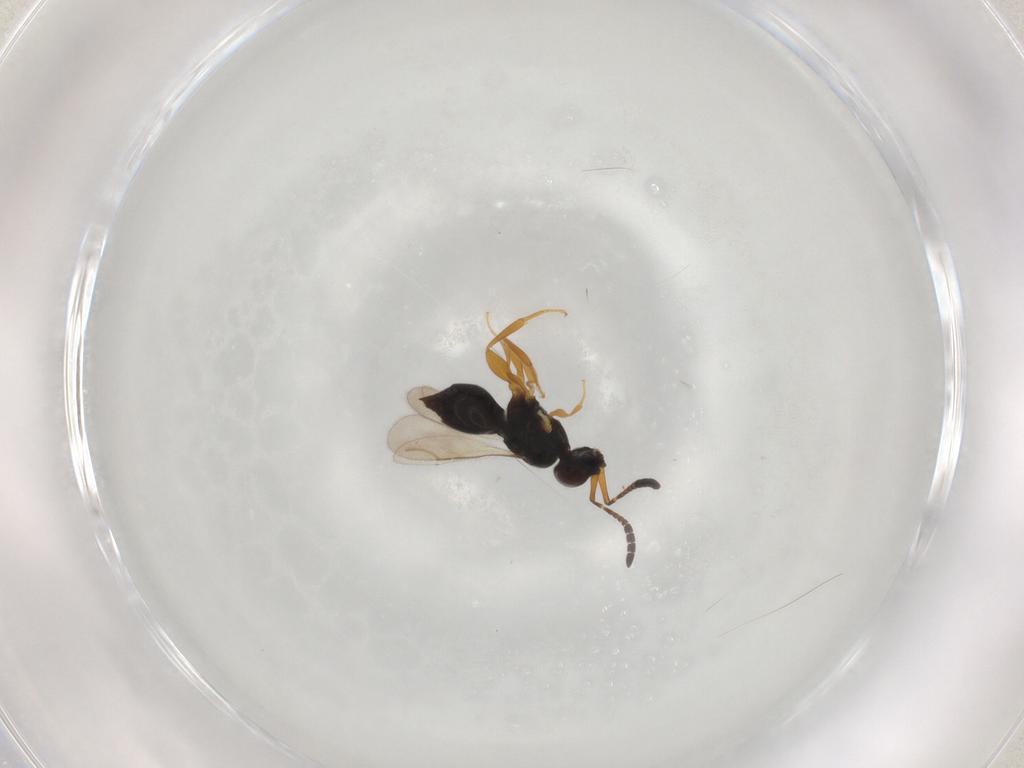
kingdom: Animalia
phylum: Arthropoda
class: Insecta
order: Hymenoptera
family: Ceraphronidae
